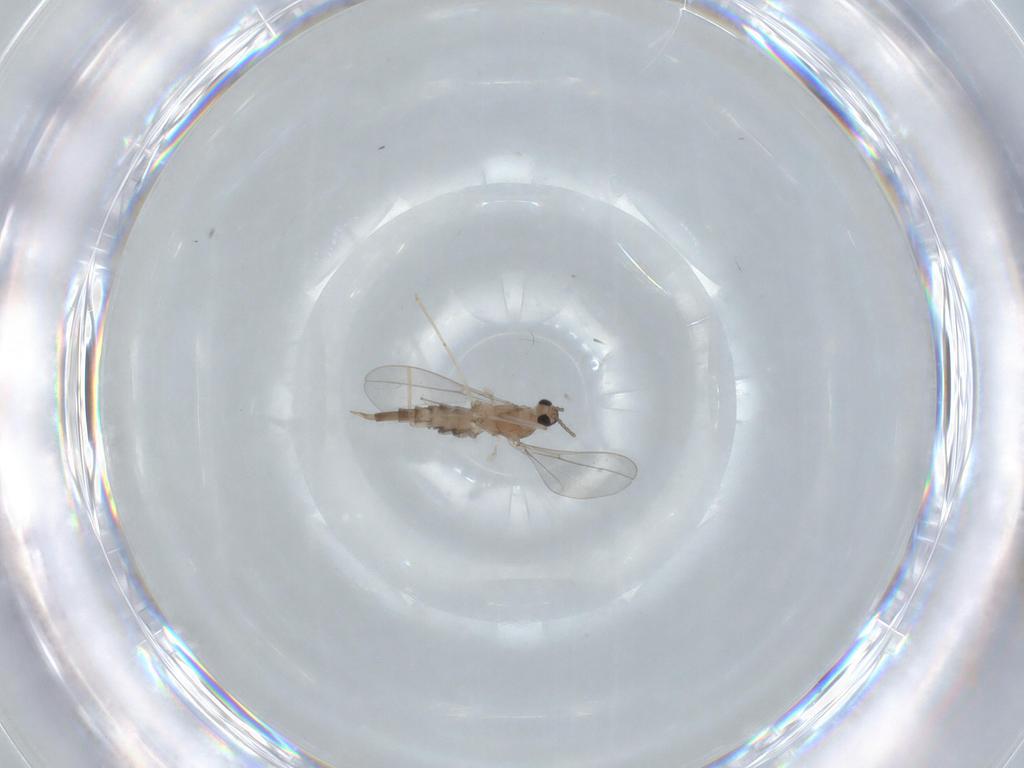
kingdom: Animalia
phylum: Arthropoda
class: Insecta
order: Diptera
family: Cecidomyiidae
